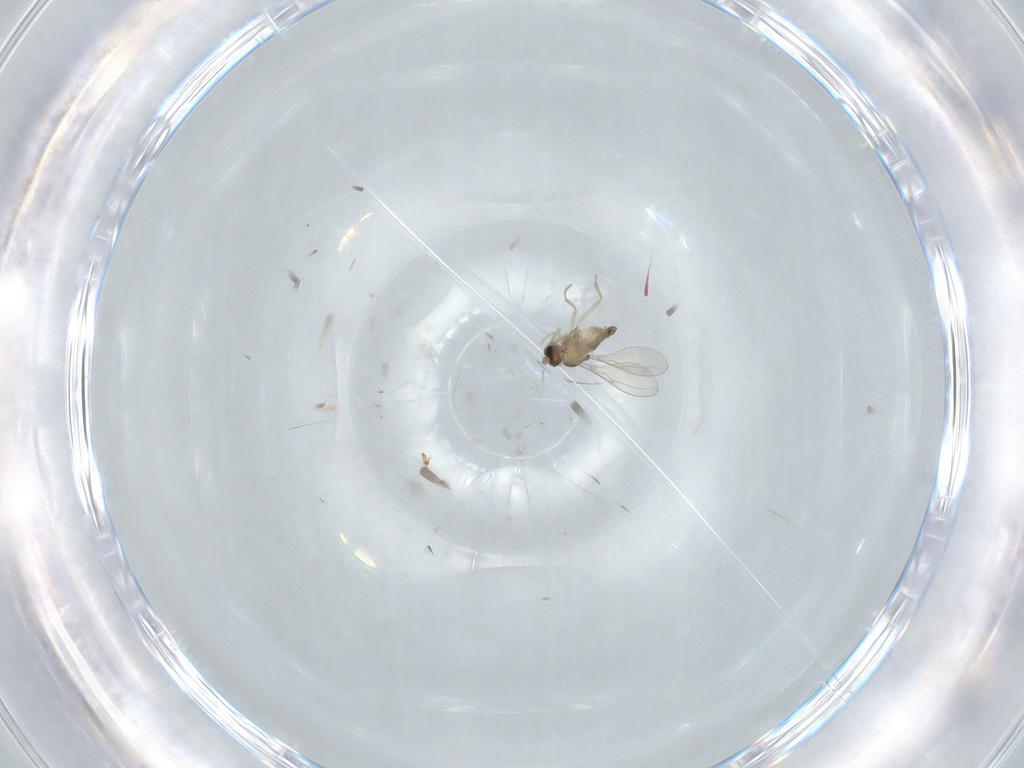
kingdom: Animalia
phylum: Arthropoda
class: Insecta
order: Diptera
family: Cecidomyiidae
